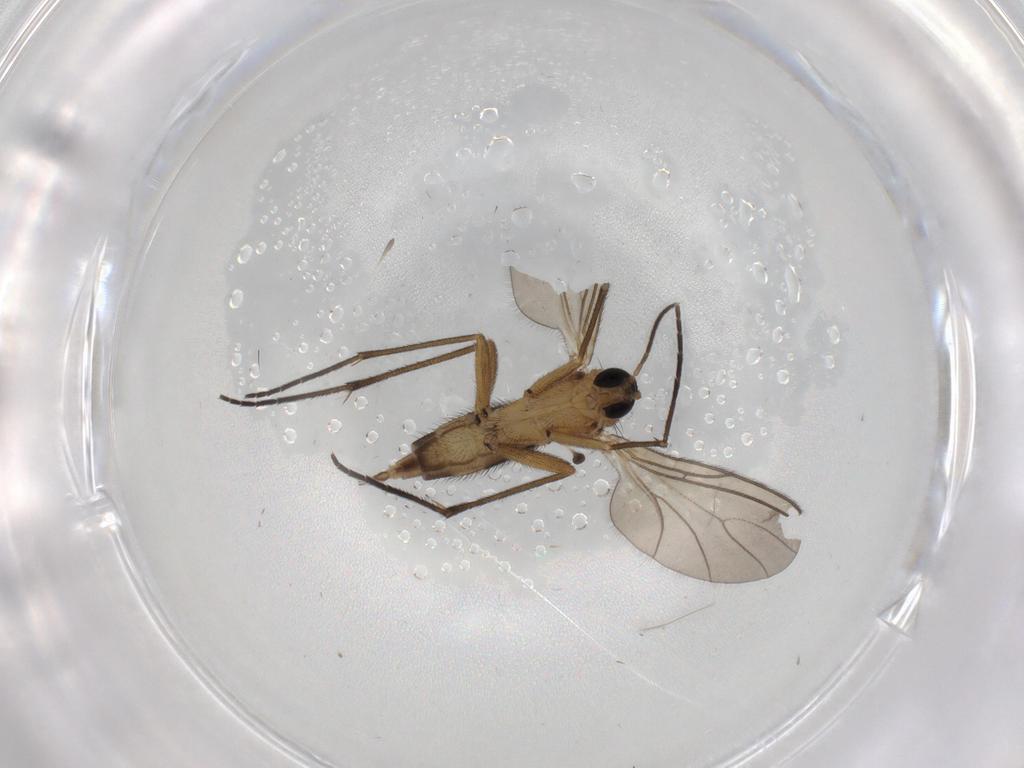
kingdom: Animalia
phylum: Arthropoda
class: Insecta
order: Diptera
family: Sciaridae
